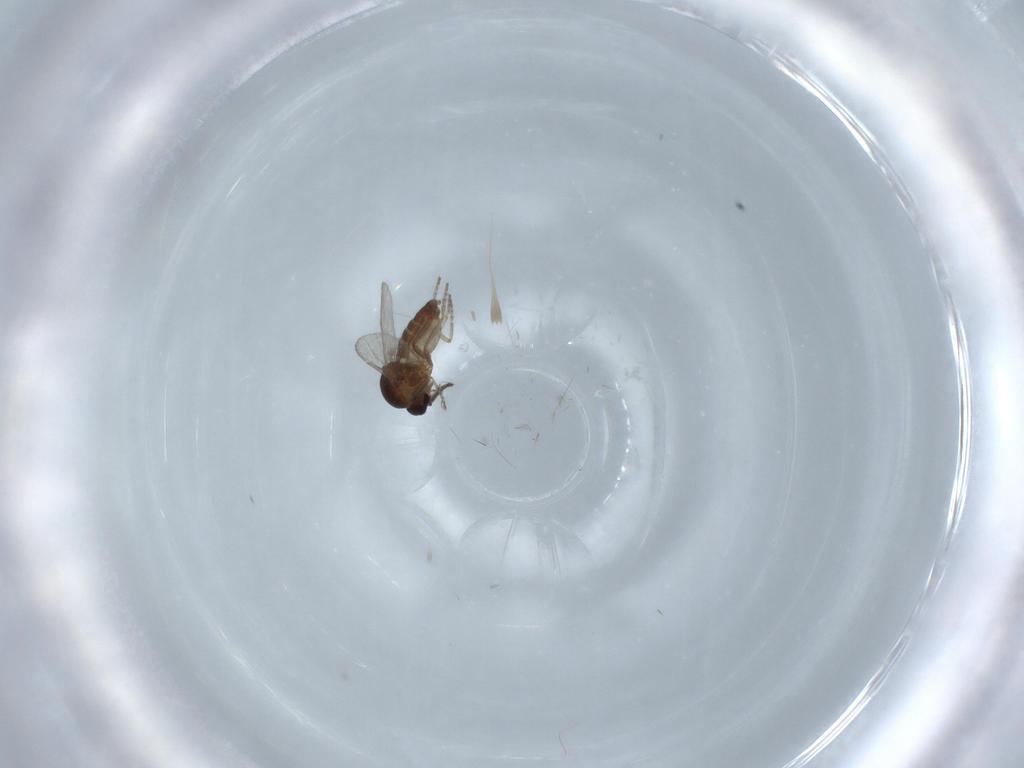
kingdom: Animalia
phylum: Arthropoda
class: Insecta
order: Diptera
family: Ceratopogonidae
